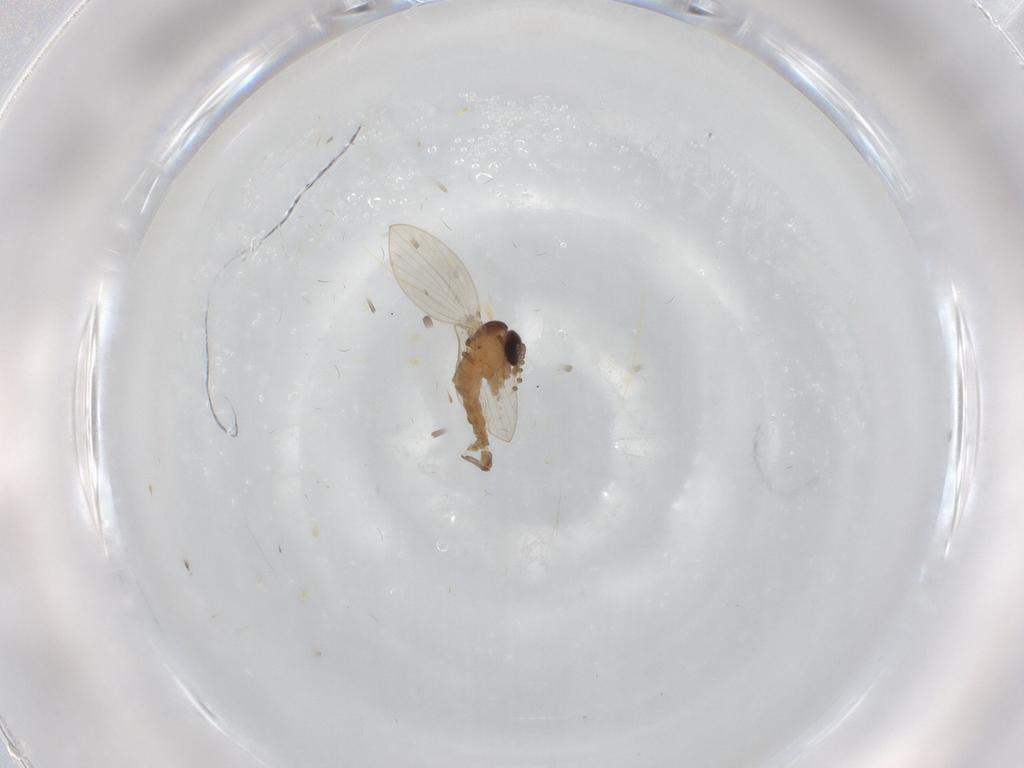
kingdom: Animalia
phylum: Arthropoda
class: Insecta
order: Diptera
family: Psychodidae
